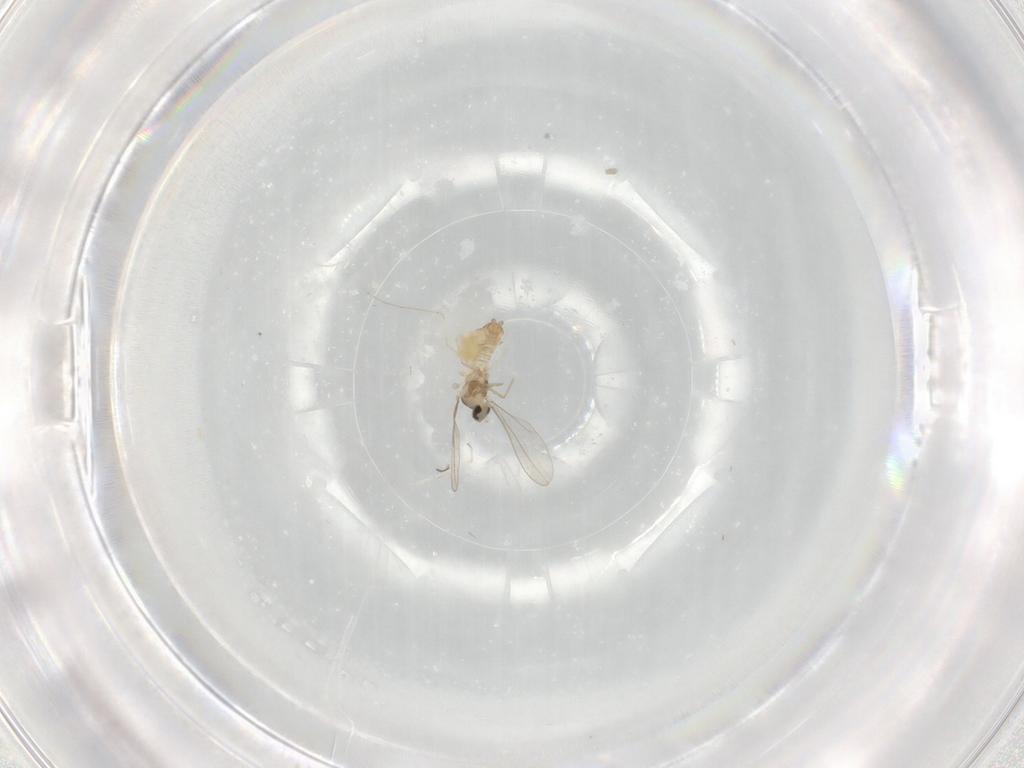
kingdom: Animalia
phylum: Arthropoda
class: Insecta
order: Diptera
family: Cecidomyiidae
